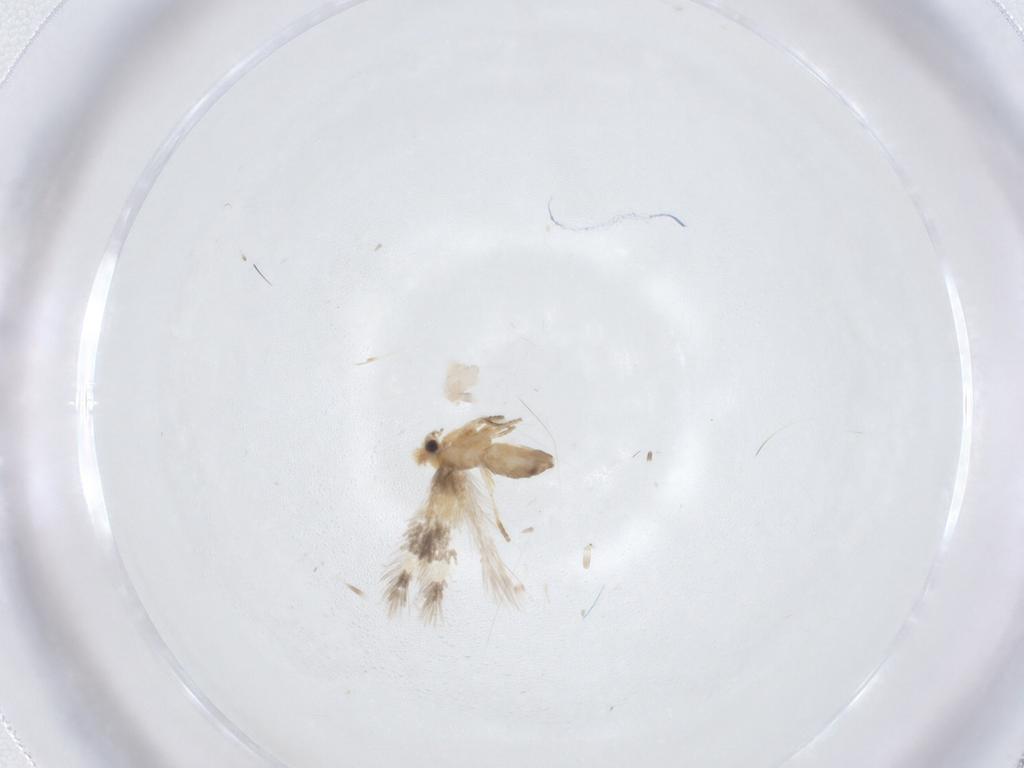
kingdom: Animalia
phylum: Arthropoda
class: Insecta
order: Lepidoptera
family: Nepticulidae
